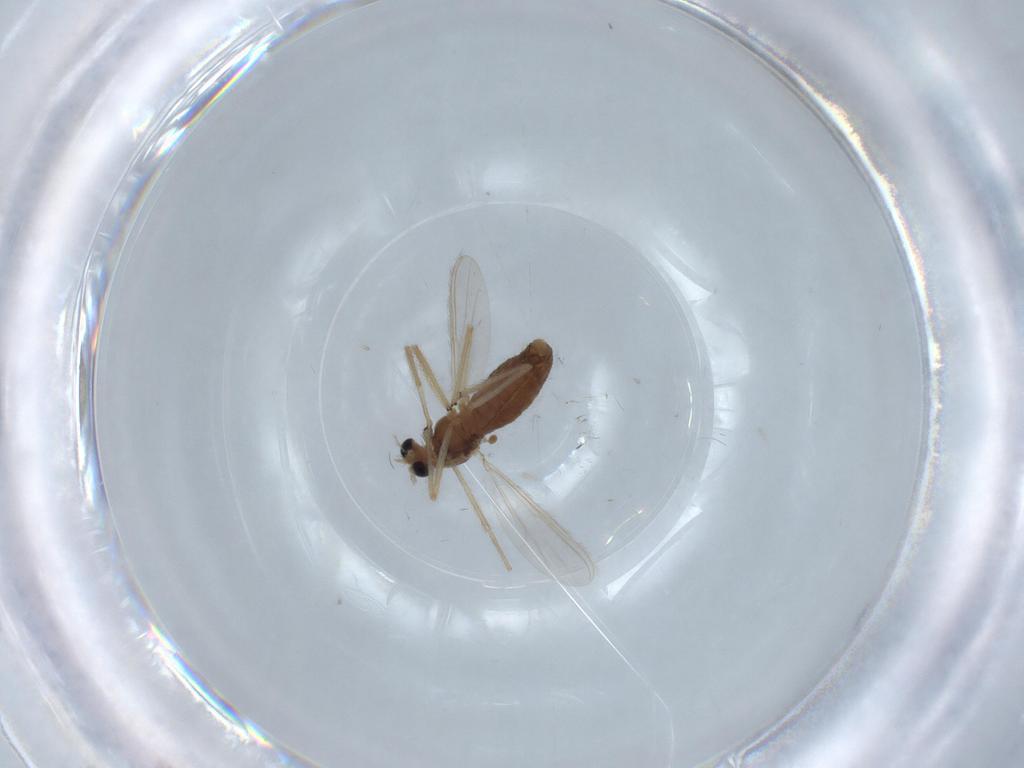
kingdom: Animalia
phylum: Arthropoda
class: Insecta
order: Diptera
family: Chironomidae
